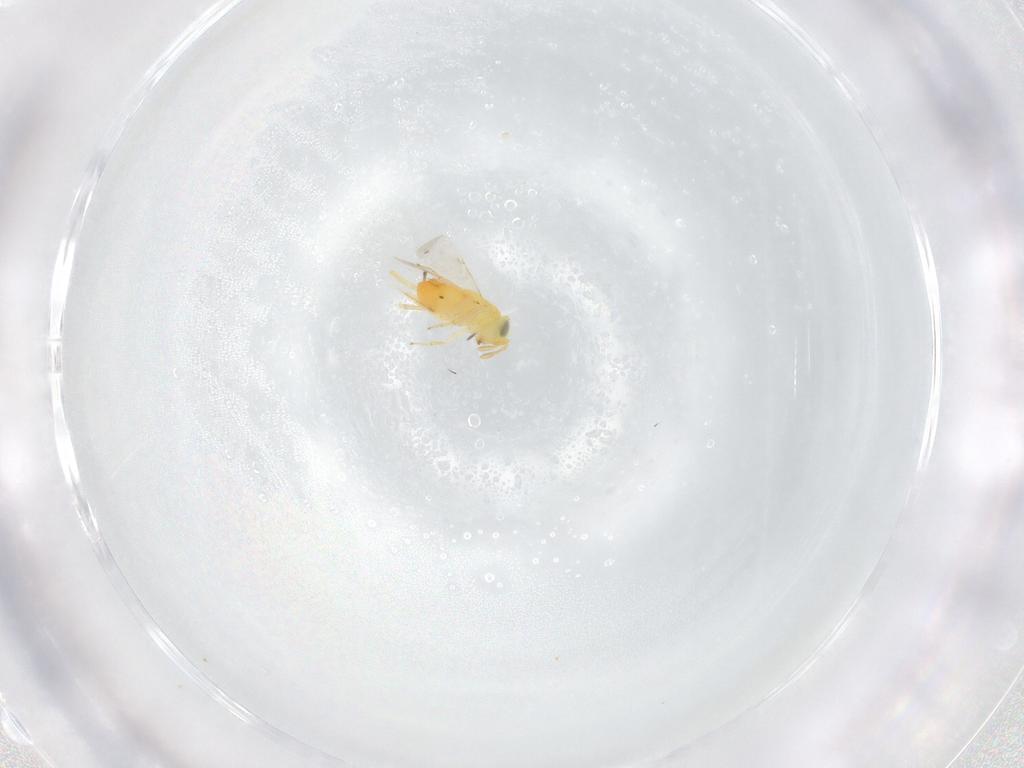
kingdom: Animalia
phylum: Arthropoda
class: Insecta
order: Hymenoptera
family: Encyrtidae
